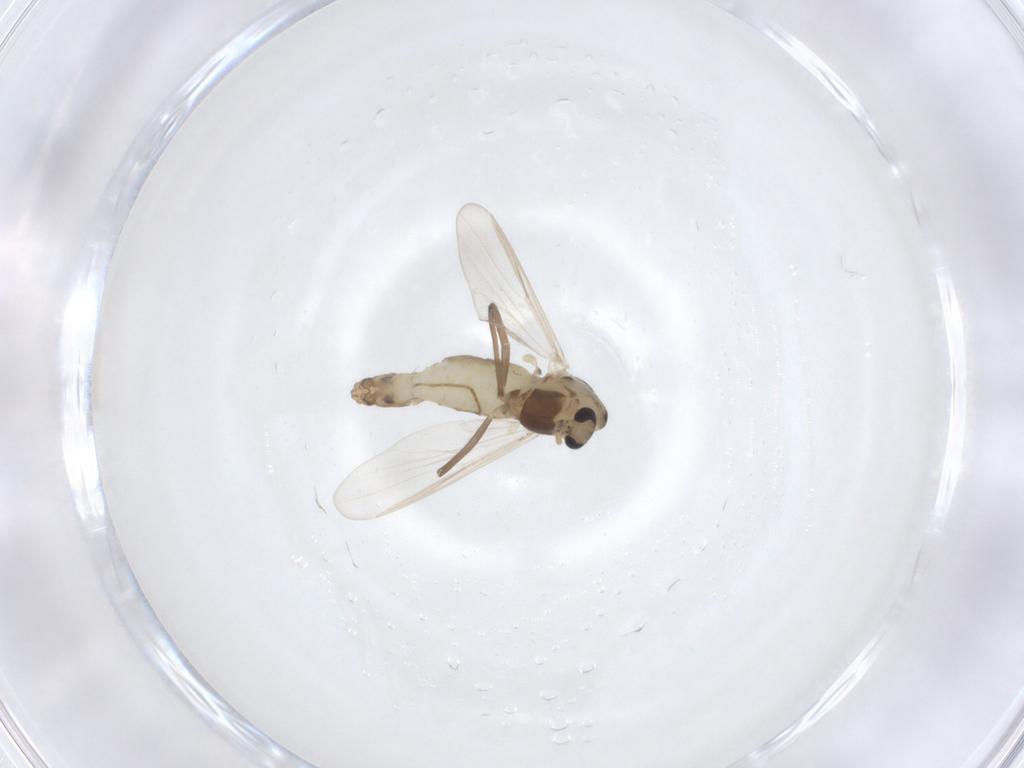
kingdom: Animalia
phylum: Arthropoda
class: Insecta
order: Diptera
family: Chironomidae
